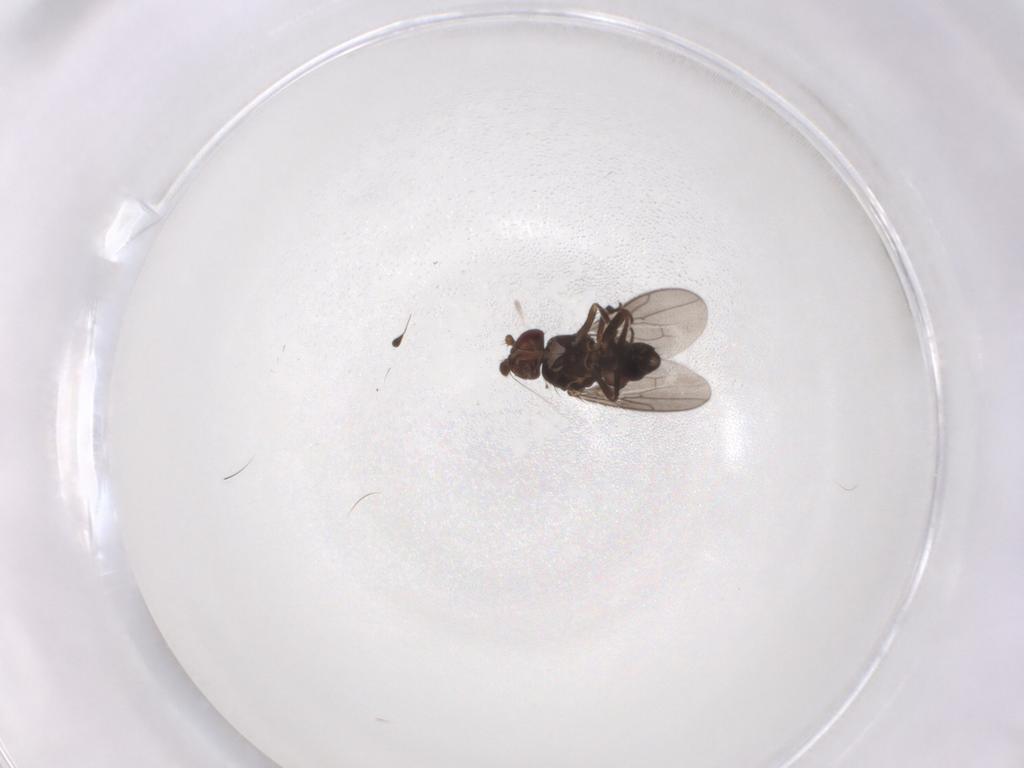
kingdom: Animalia
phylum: Arthropoda
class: Insecta
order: Diptera
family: Sphaeroceridae
